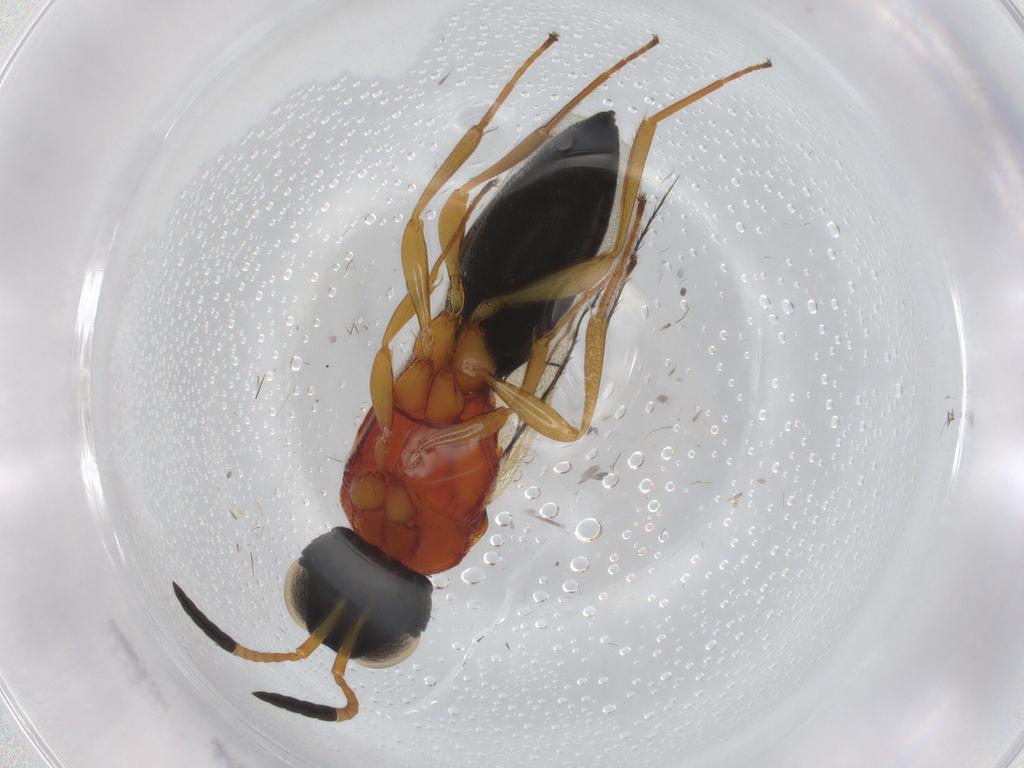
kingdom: Animalia
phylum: Arthropoda
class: Insecta
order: Hymenoptera
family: Scelionidae
